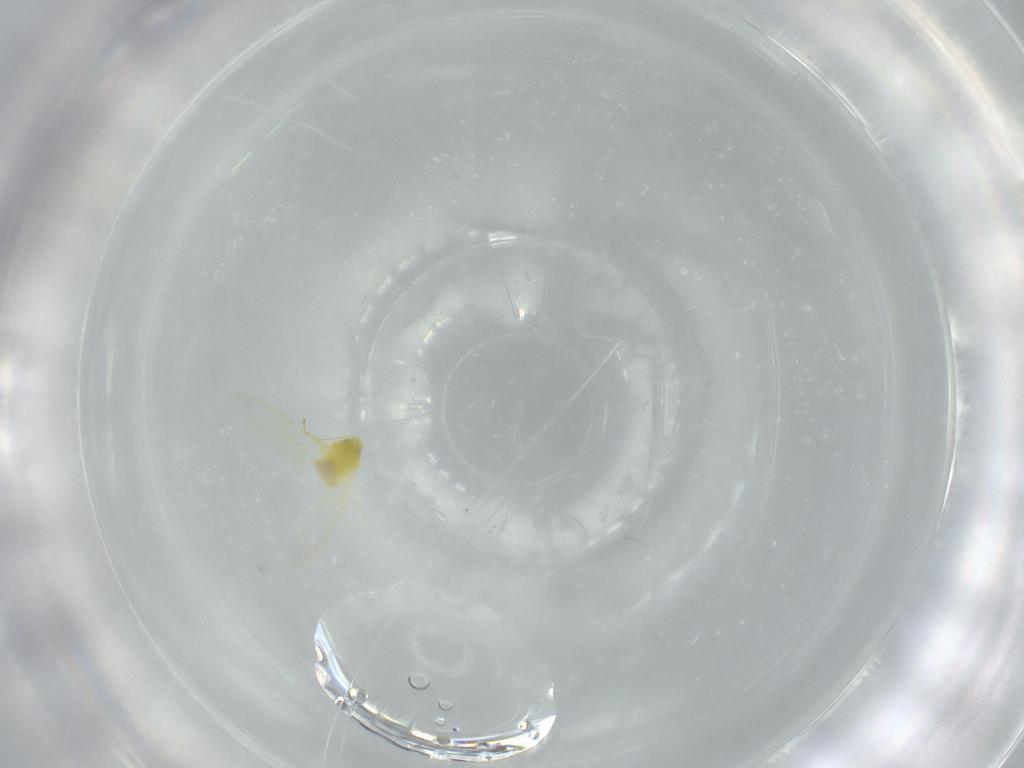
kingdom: Animalia
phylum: Arthropoda
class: Insecta
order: Hemiptera
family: Aleyrodidae
